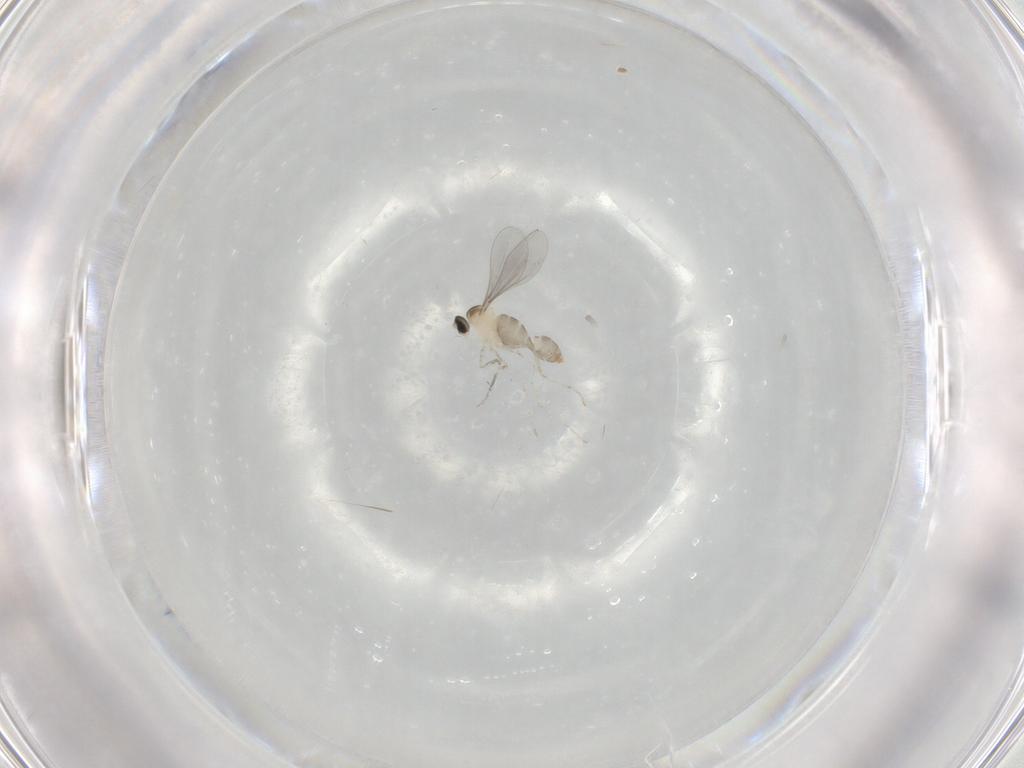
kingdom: Animalia
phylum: Arthropoda
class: Insecta
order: Diptera
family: Cecidomyiidae
